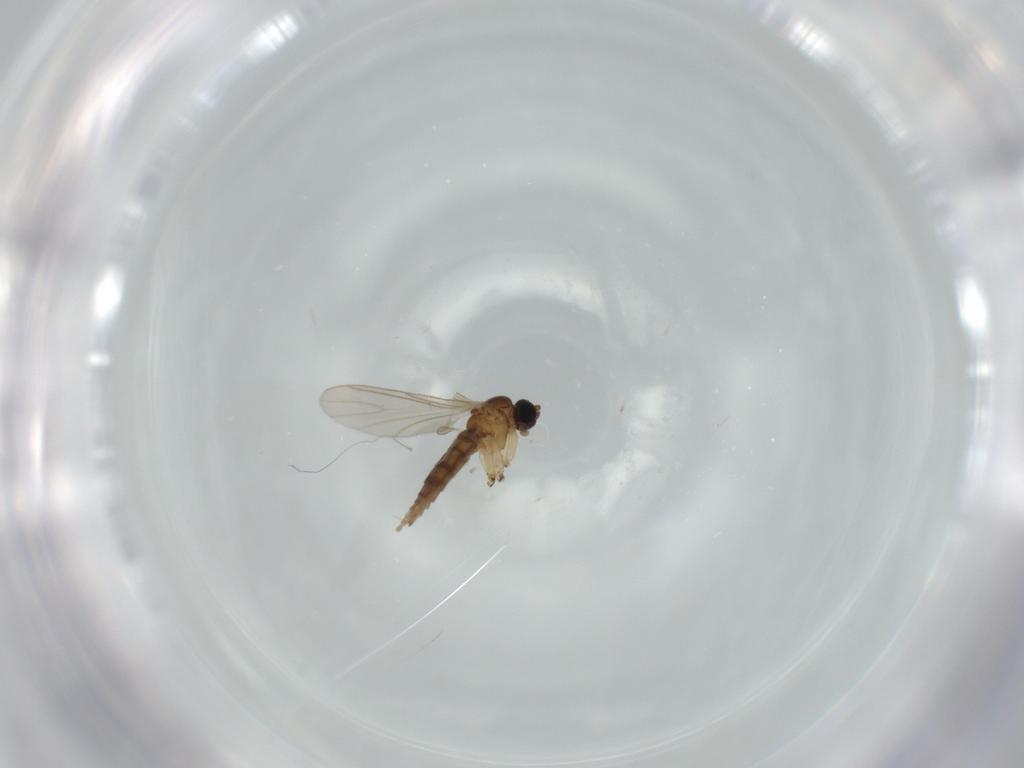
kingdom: Animalia
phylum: Arthropoda
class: Insecta
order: Diptera
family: Sciaridae
